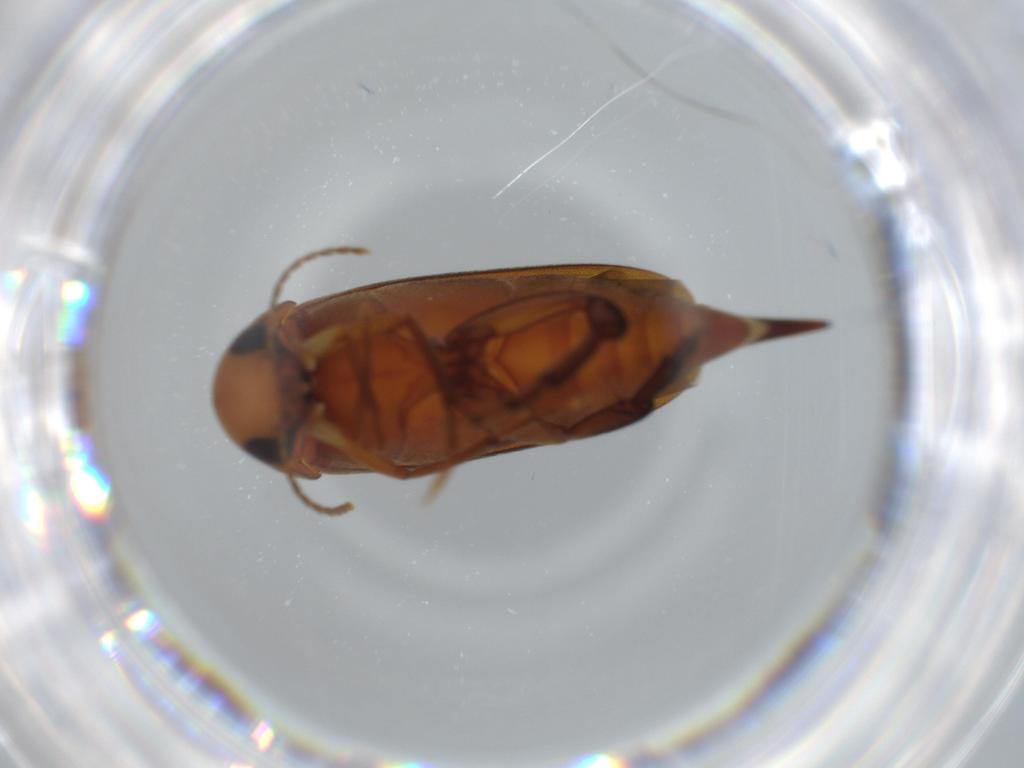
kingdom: Animalia
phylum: Arthropoda
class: Insecta
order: Coleoptera
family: Mordellidae
